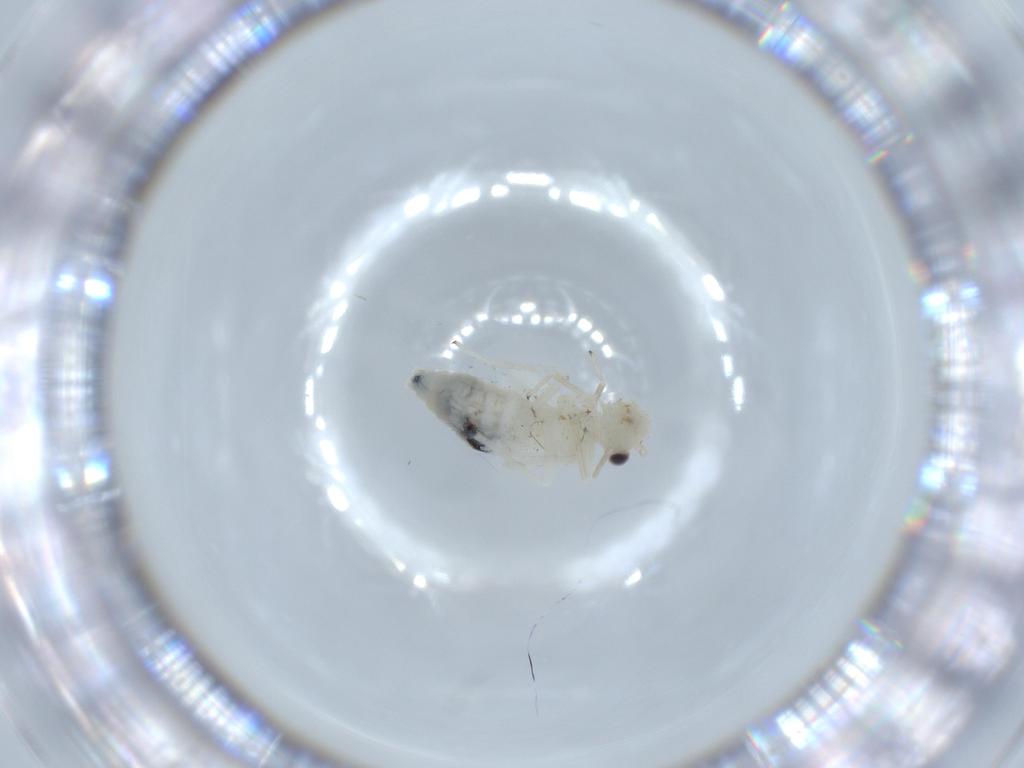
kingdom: Animalia
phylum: Arthropoda
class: Insecta
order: Psocodea
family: Caeciliusidae
